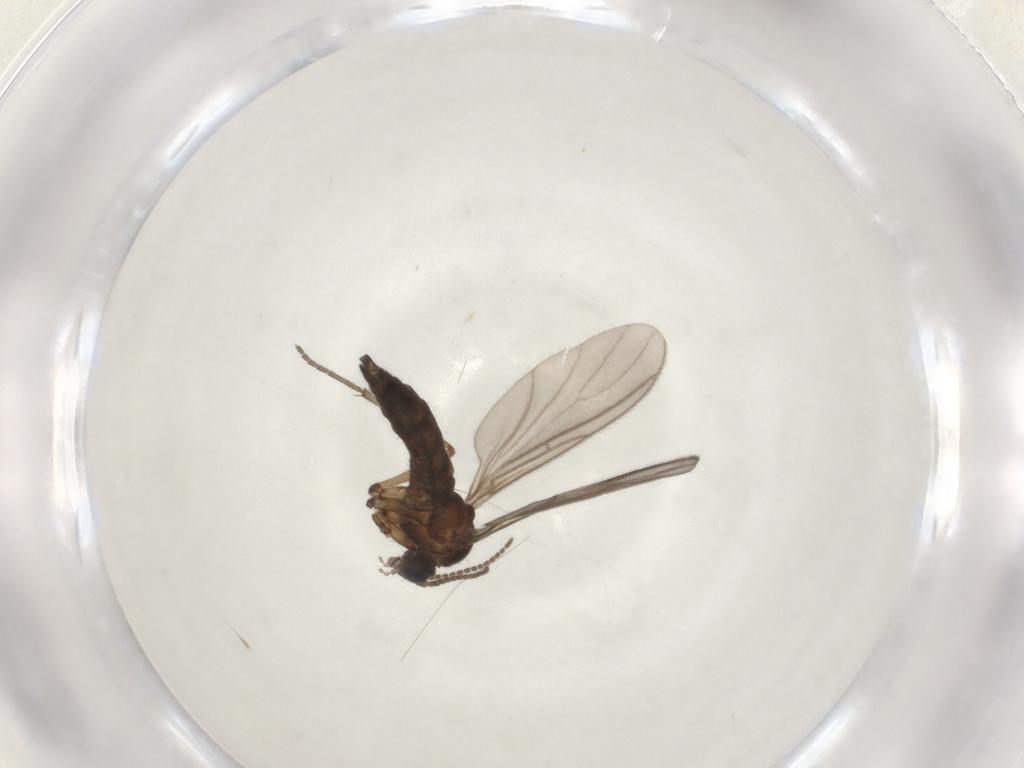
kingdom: Animalia
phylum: Arthropoda
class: Insecta
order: Diptera
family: Sciaridae
